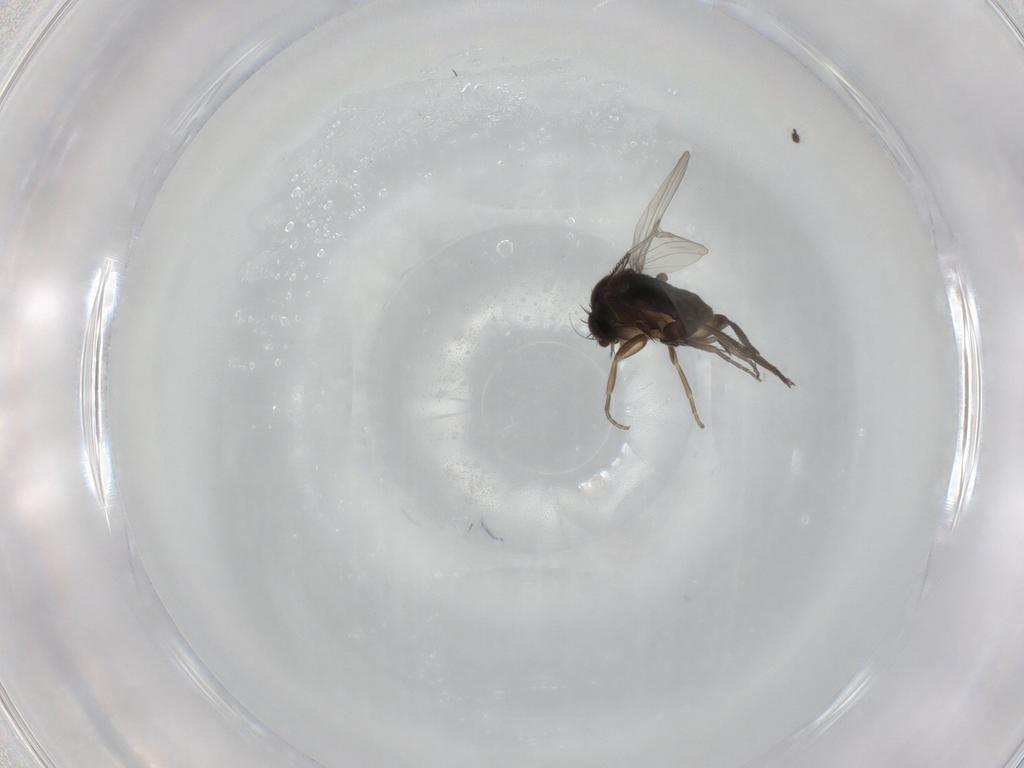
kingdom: Animalia
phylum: Arthropoda
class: Insecta
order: Diptera
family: Phoridae
